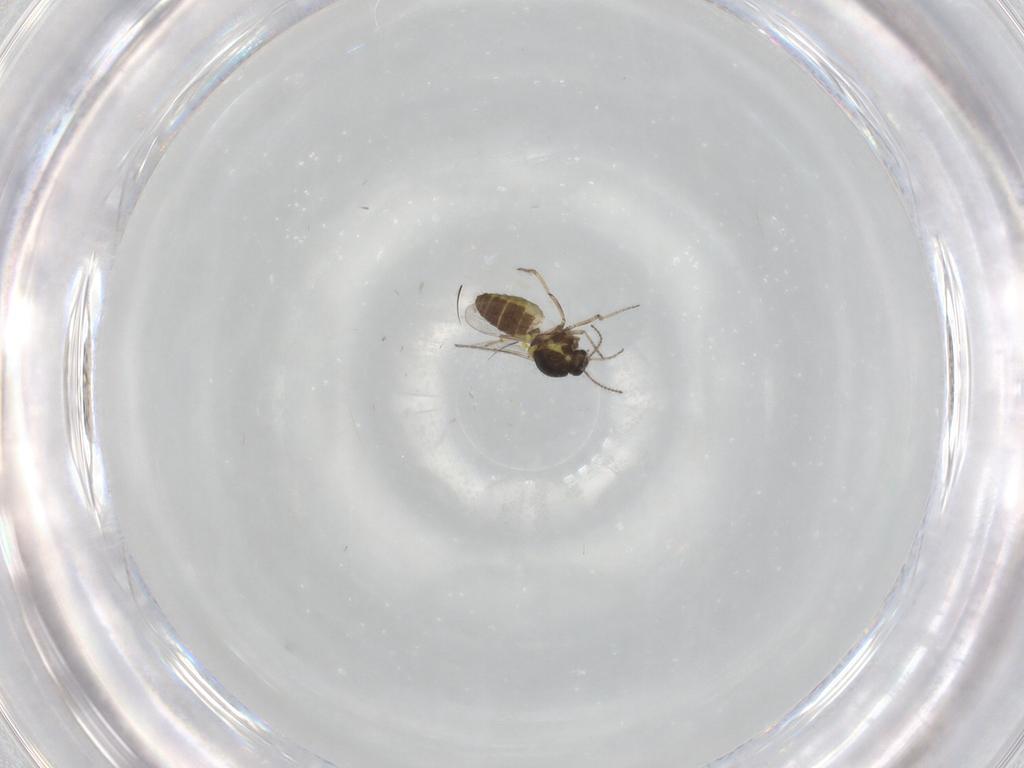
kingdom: Animalia
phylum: Arthropoda
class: Insecta
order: Diptera
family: Ceratopogonidae
